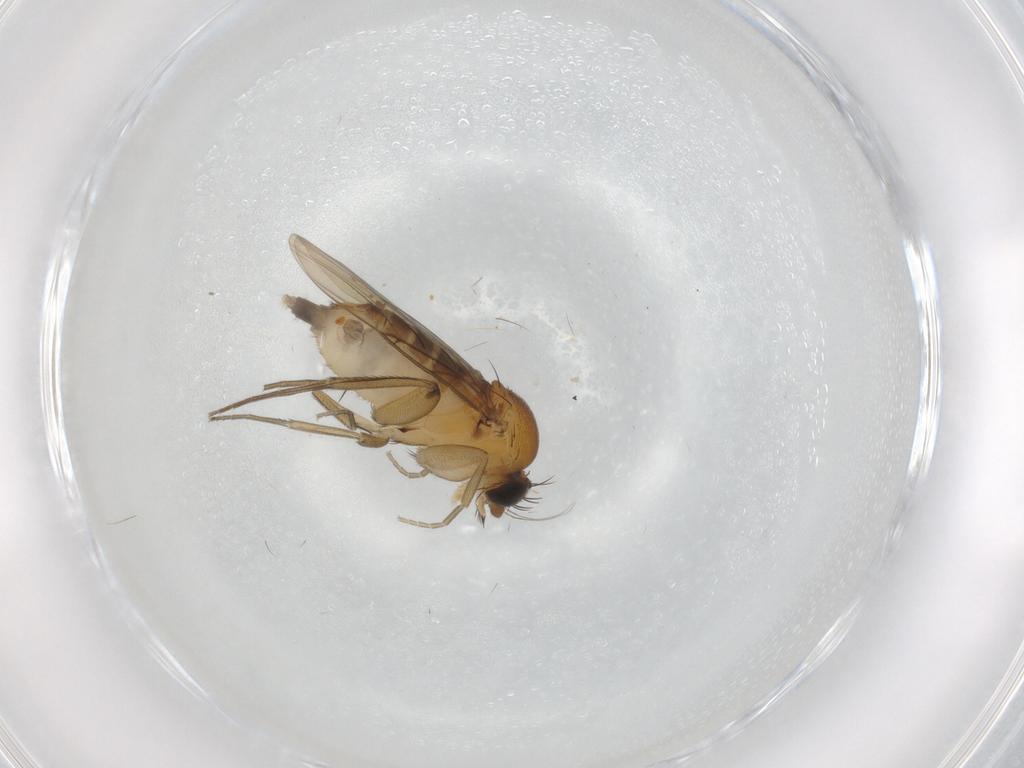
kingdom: Animalia
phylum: Arthropoda
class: Insecta
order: Diptera
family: Phoridae
